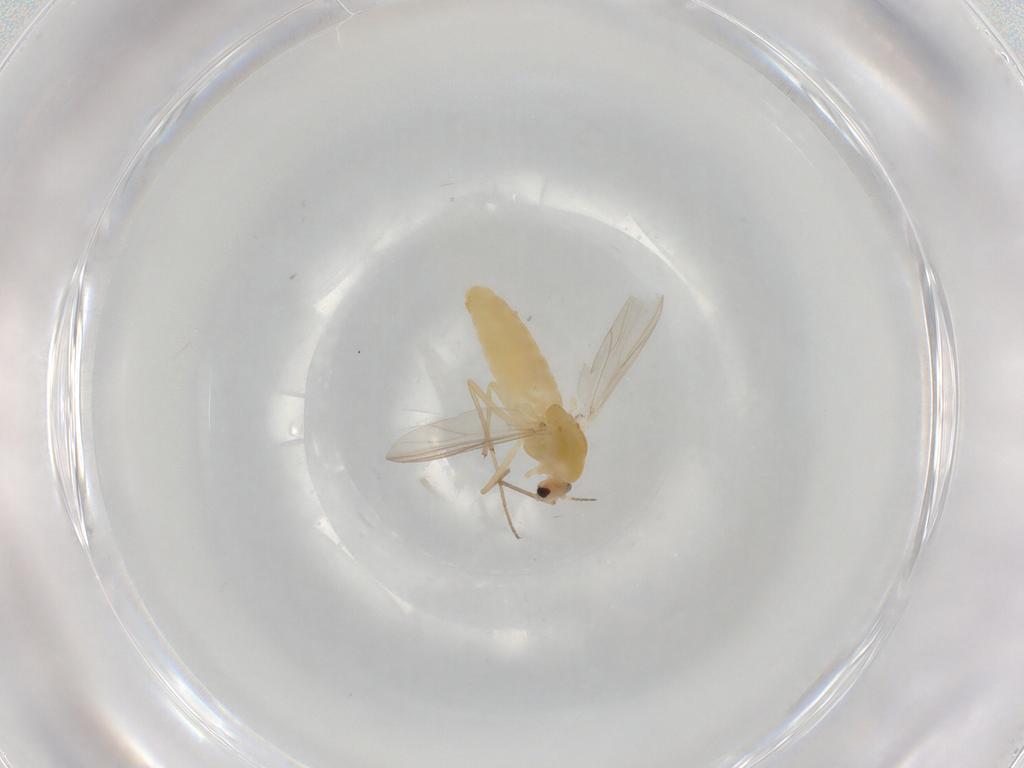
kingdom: Animalia
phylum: Arthropoda
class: Insecta
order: Diptera
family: Chironomidae
